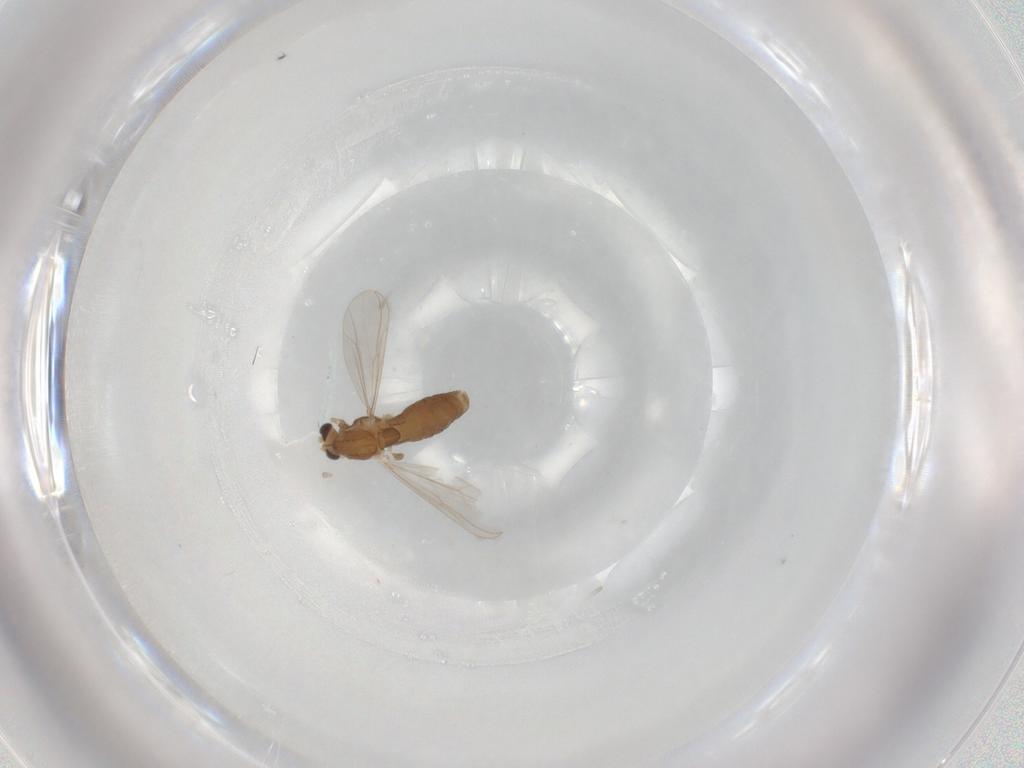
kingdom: Animalia
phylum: Arthropoda
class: Insecta
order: Diptera
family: Chironomidae
